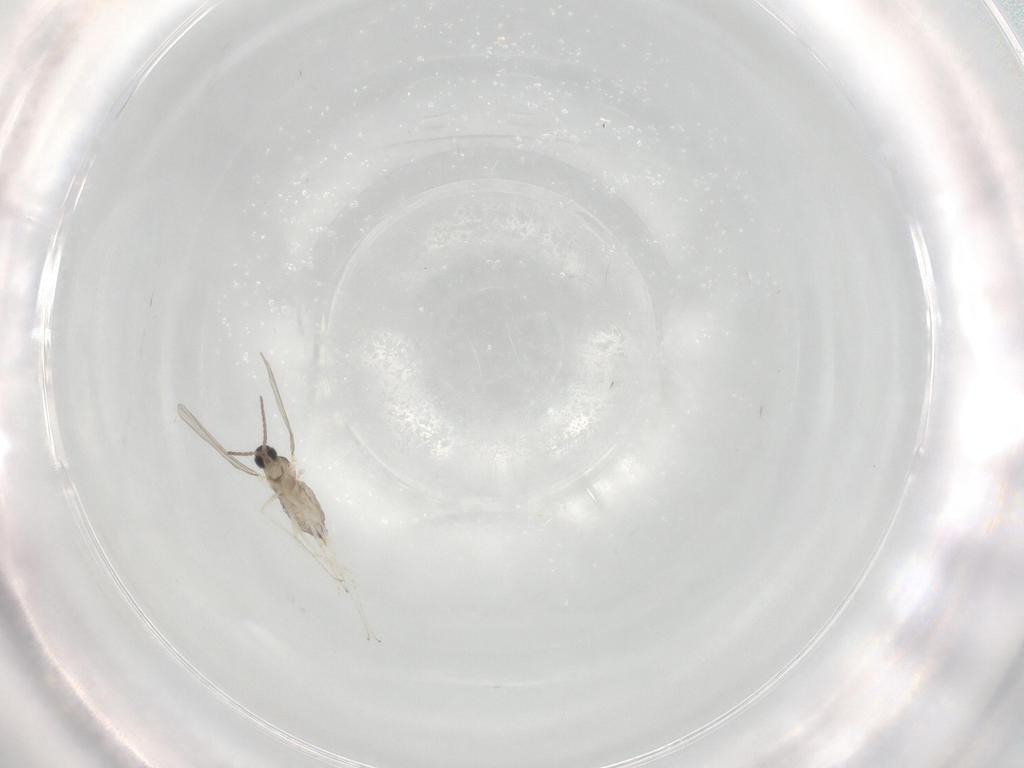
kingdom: Animalia
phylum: Arthropoda
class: Insecta
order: Diptera
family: Cecidomyiidae
